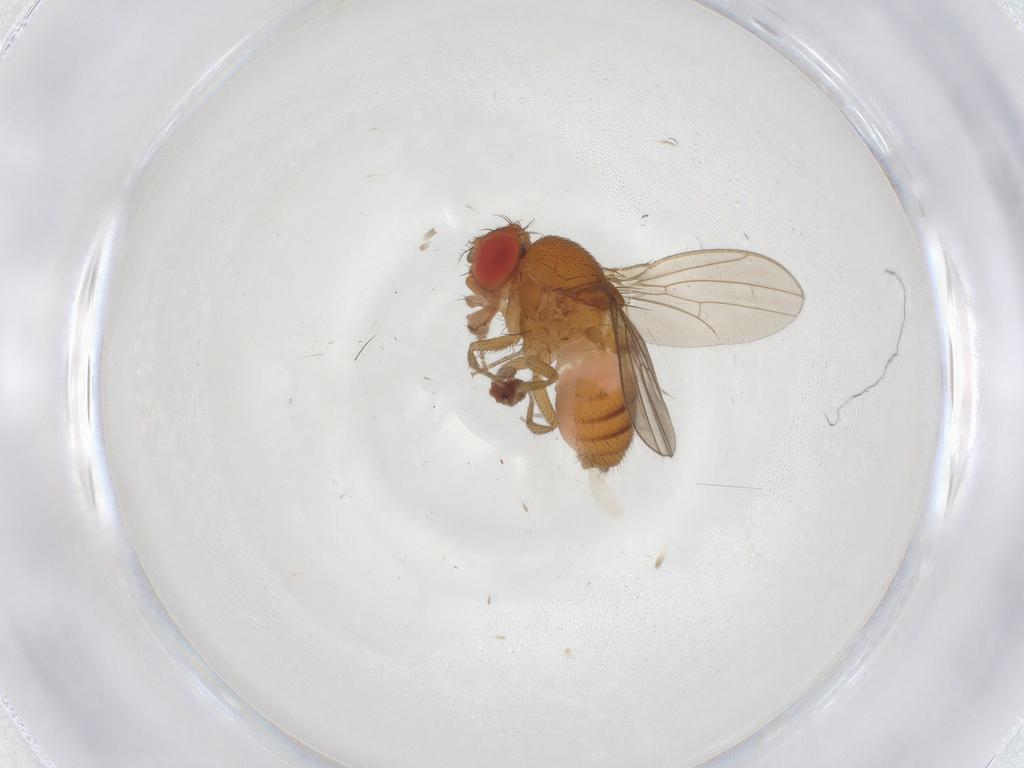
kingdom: Animalia
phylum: Arthropoda
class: Insecta
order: Diptera
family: Drosophilidae
